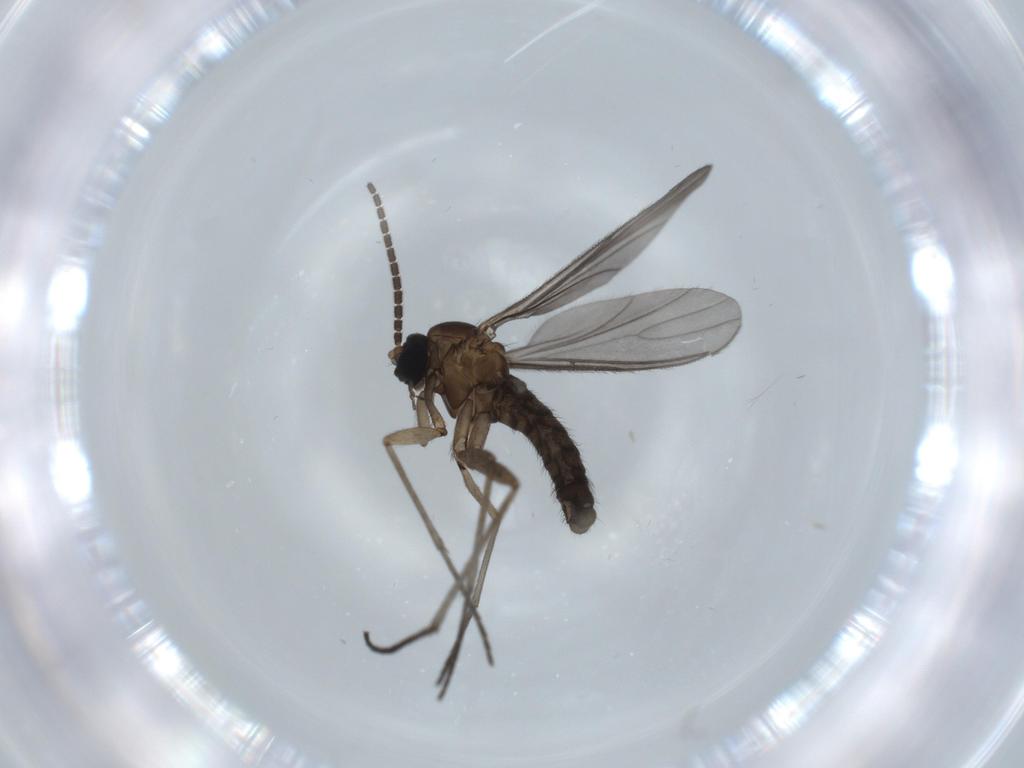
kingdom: Animalia
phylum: Arthropoda
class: Insecta
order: Diptera
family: Sciaridae
